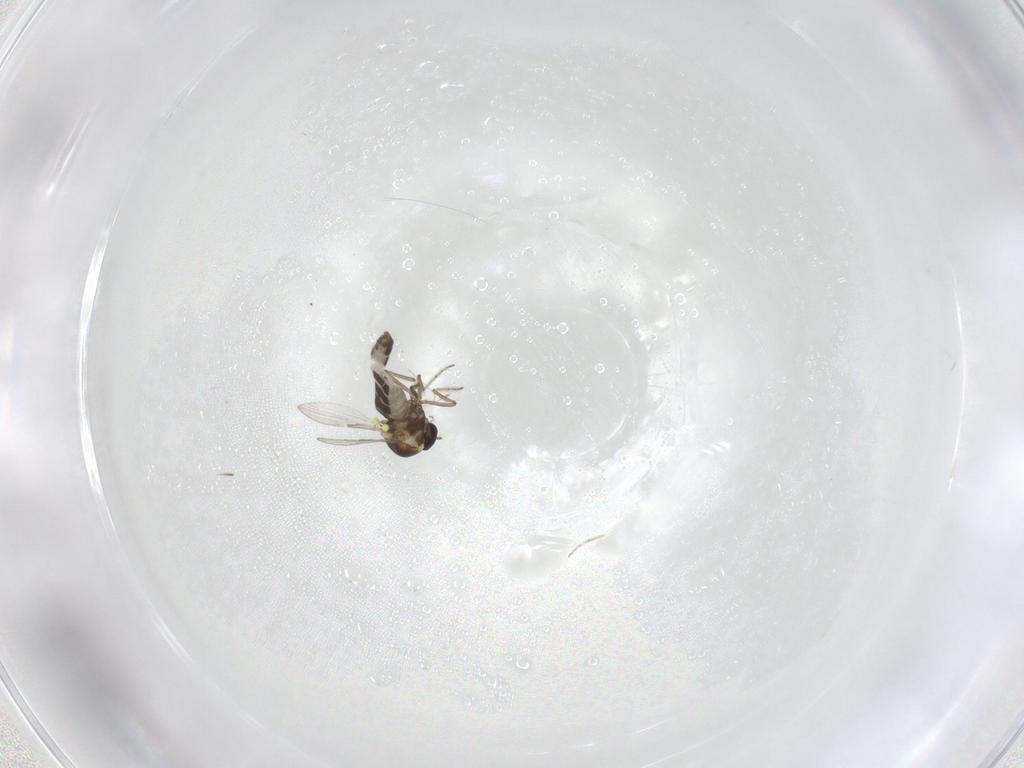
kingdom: Animalia
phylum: Arthropoda
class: Insecta
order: Diptera
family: Ceratopogonidae
